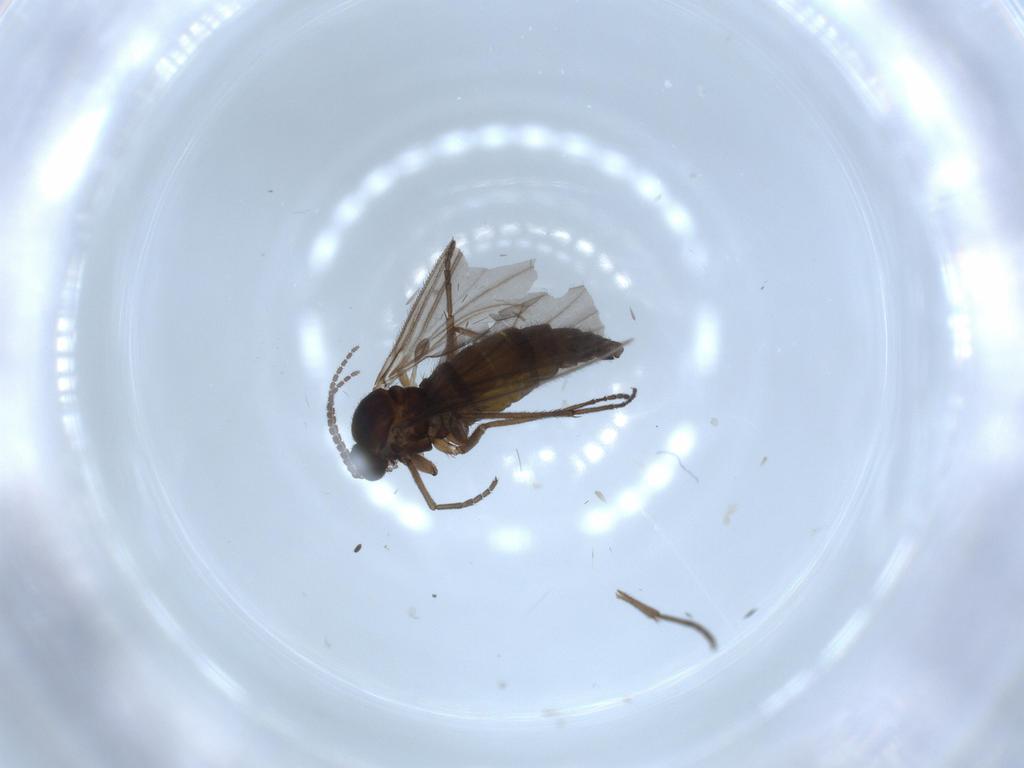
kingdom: Animalia
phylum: Arthropoda
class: Insecta
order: Diptera
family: Sciaridae
